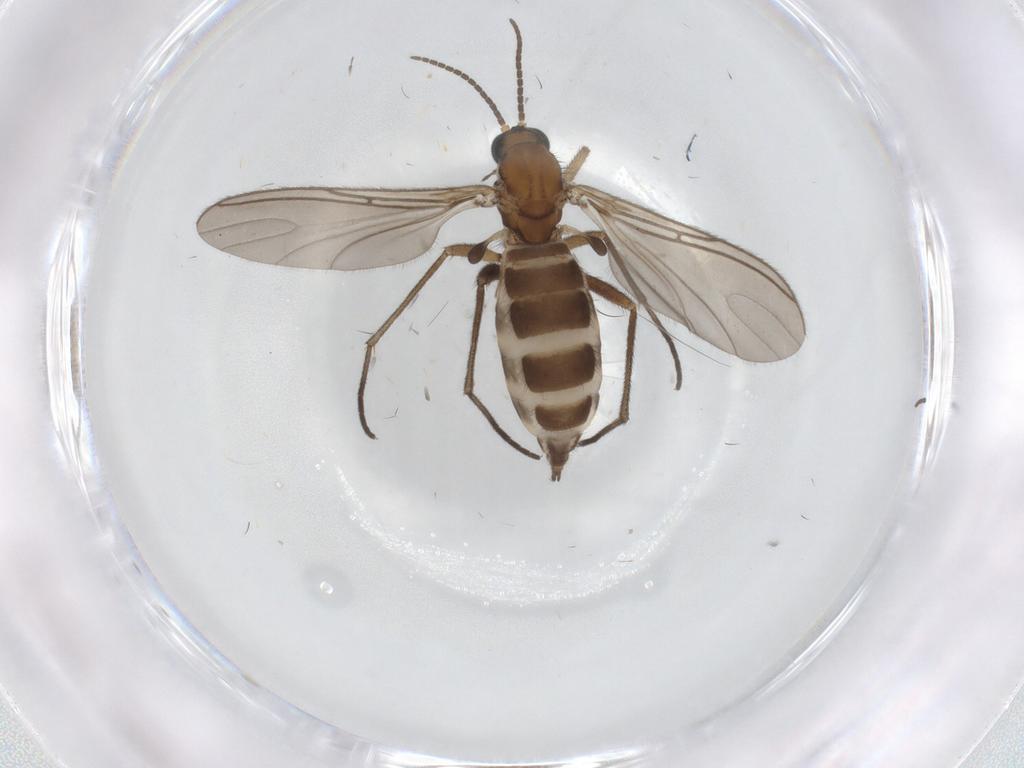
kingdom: Animalia
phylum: Arthropoda
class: Insecta
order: Diptera
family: Sciaridae
